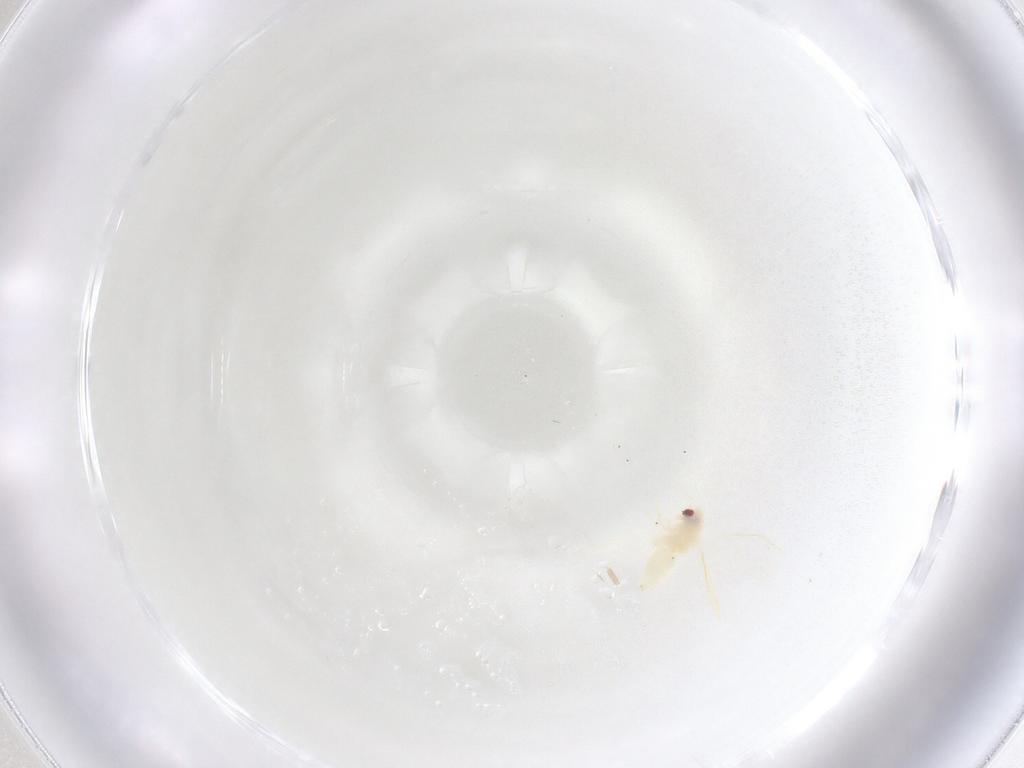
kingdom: Animalia
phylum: Arthropoda
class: Insecta
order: Hemiptera
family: Aleyrodidae
